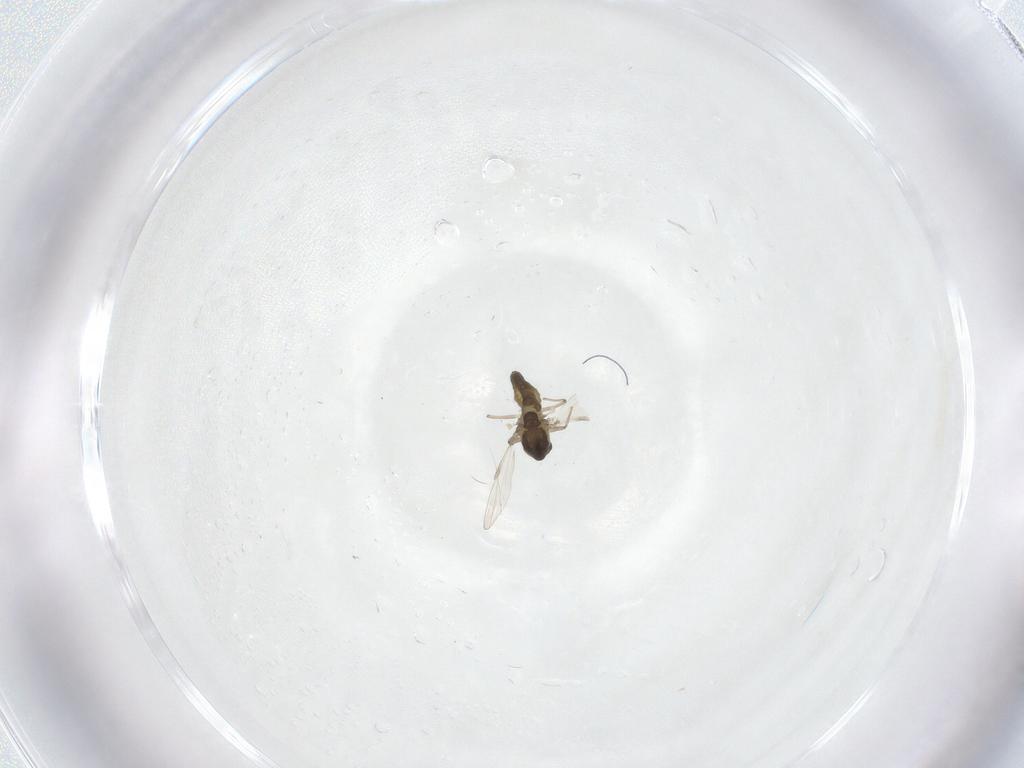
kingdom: Animalia
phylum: Arthropoda
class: Insecta
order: Diptera
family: Chironomidae
